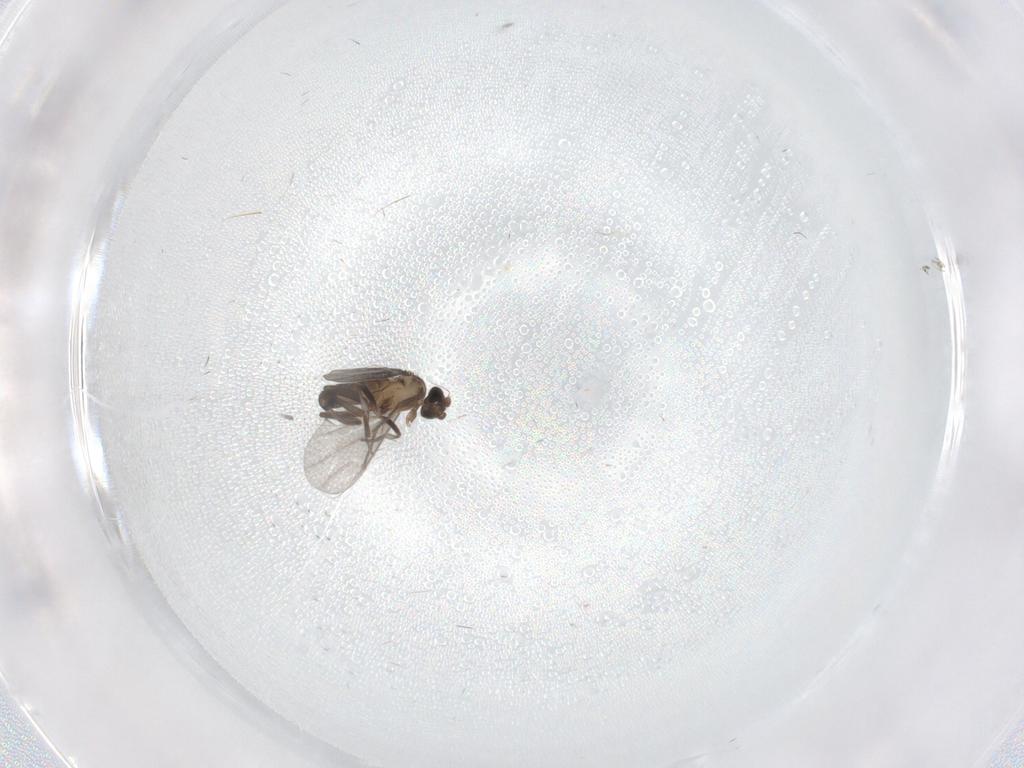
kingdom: Animalia
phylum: Arthropoda
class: Insecta
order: Diptera
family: Phoridae
